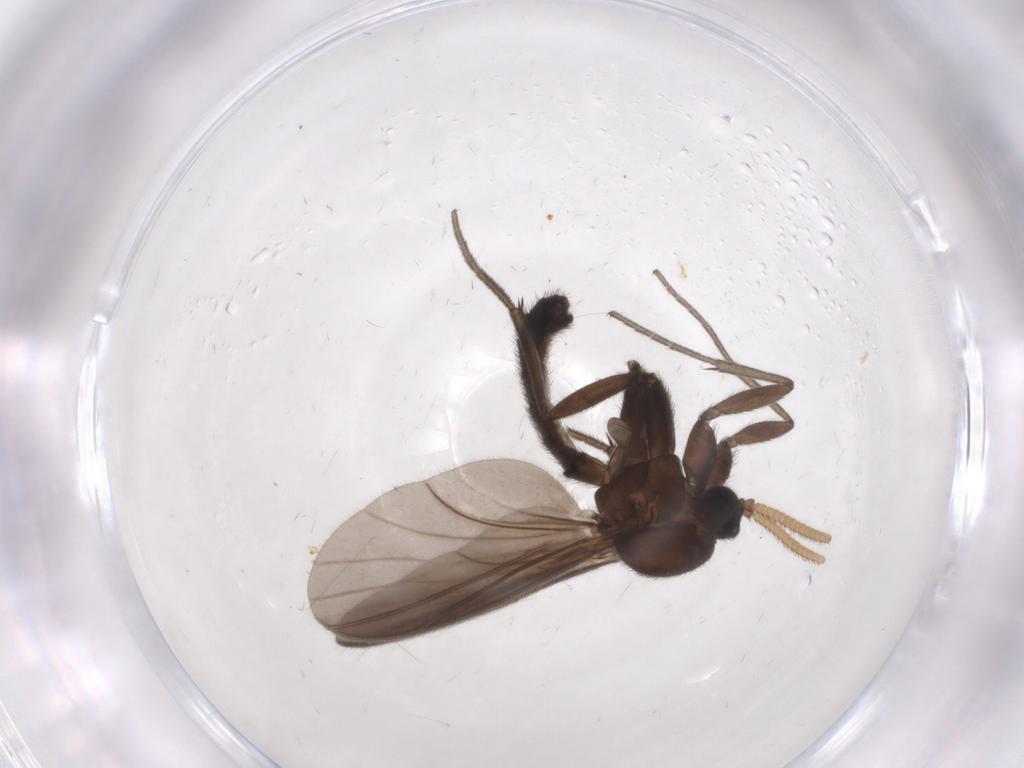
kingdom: Animalia
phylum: Arthropoda
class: Insecta
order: Diptera
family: Mycetophilidae
